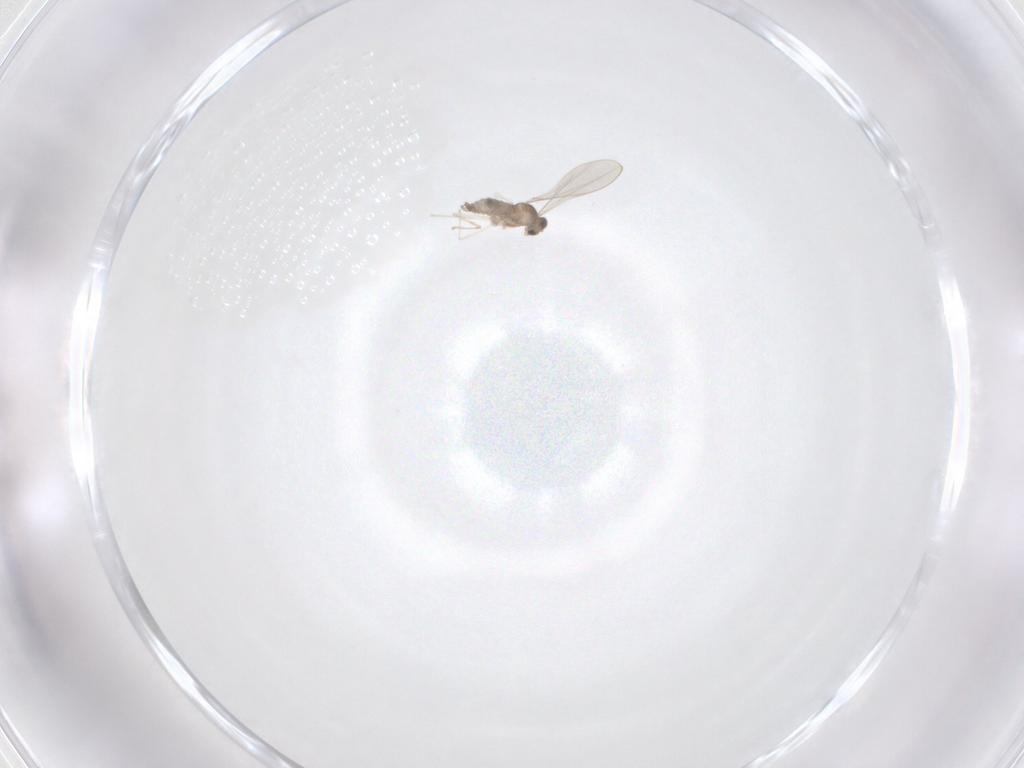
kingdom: Animalia
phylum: Arthropoda
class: Insecta
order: Diptera
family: Cecidomyiidae
